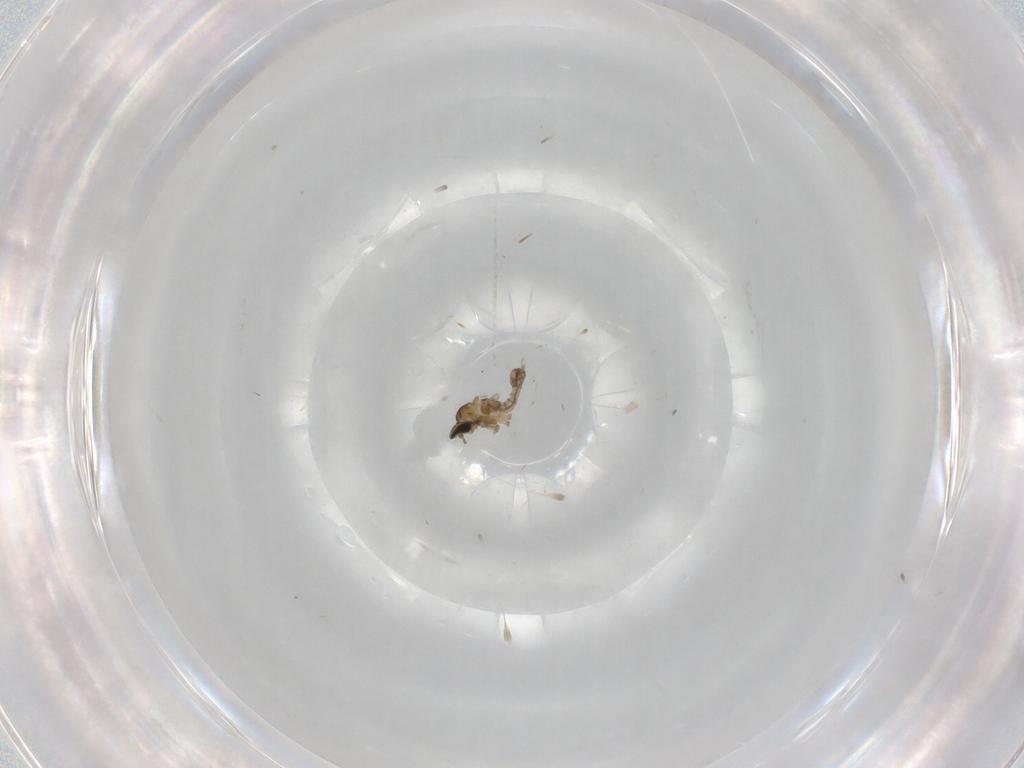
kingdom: Animalia
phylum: Arthropoda
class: Insecta
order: Diptera
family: Cecidomyiidae
